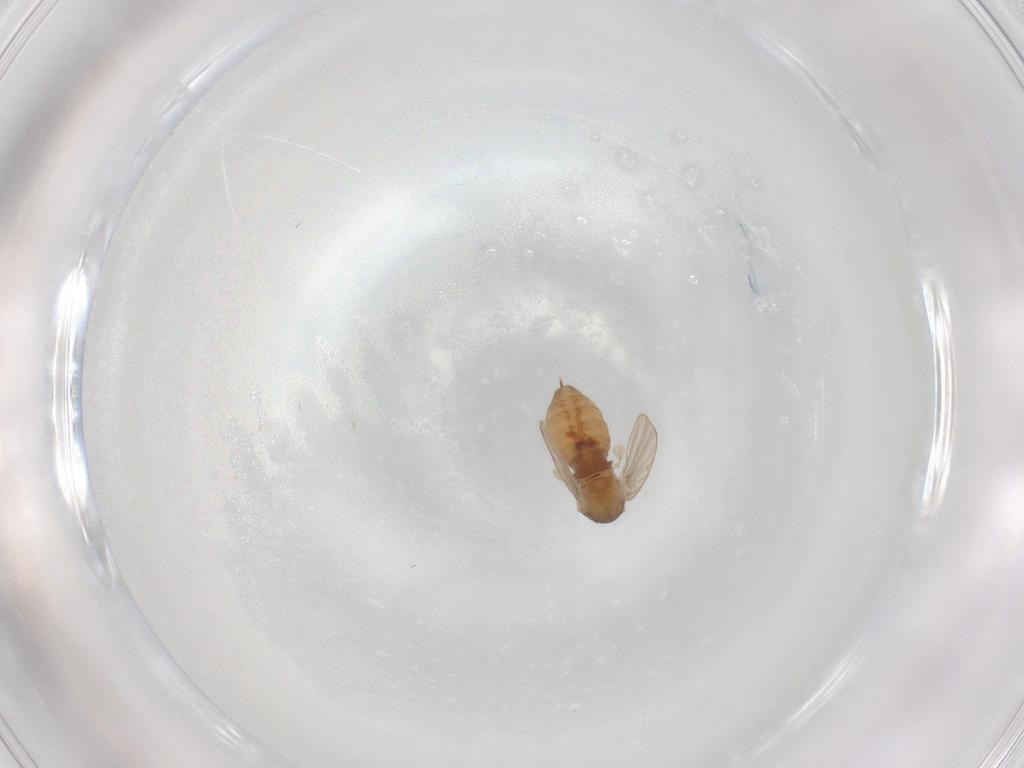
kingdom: Animalia
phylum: Arthropoda
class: Insecta
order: Diptera
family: Psychodidae
